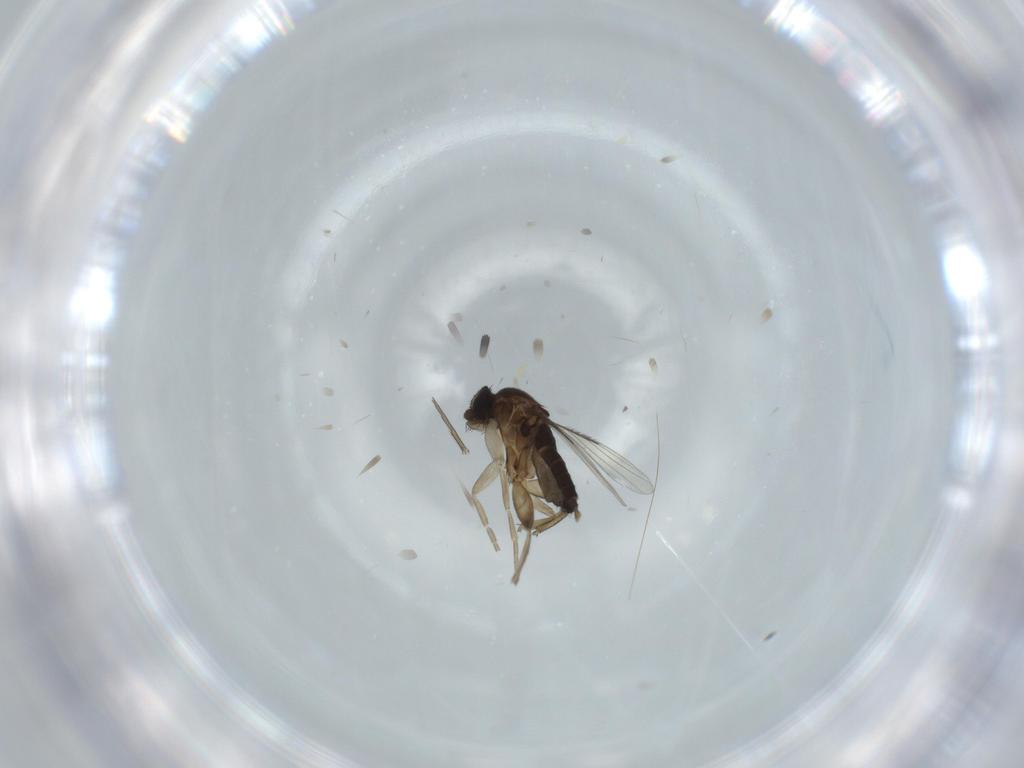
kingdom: Animalia
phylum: Arthropoda
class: Insecta
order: Diptera
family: Phoridae
